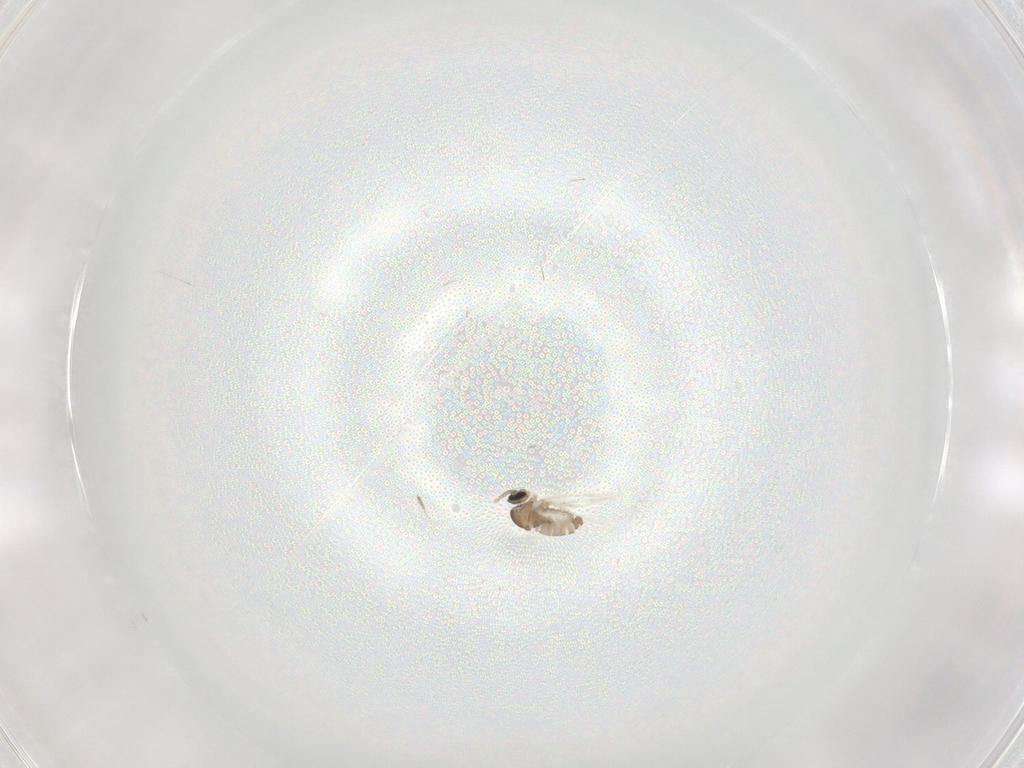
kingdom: Animalia
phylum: Arthropoda
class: Insecta
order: Diptera
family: Cecidomyiidae
